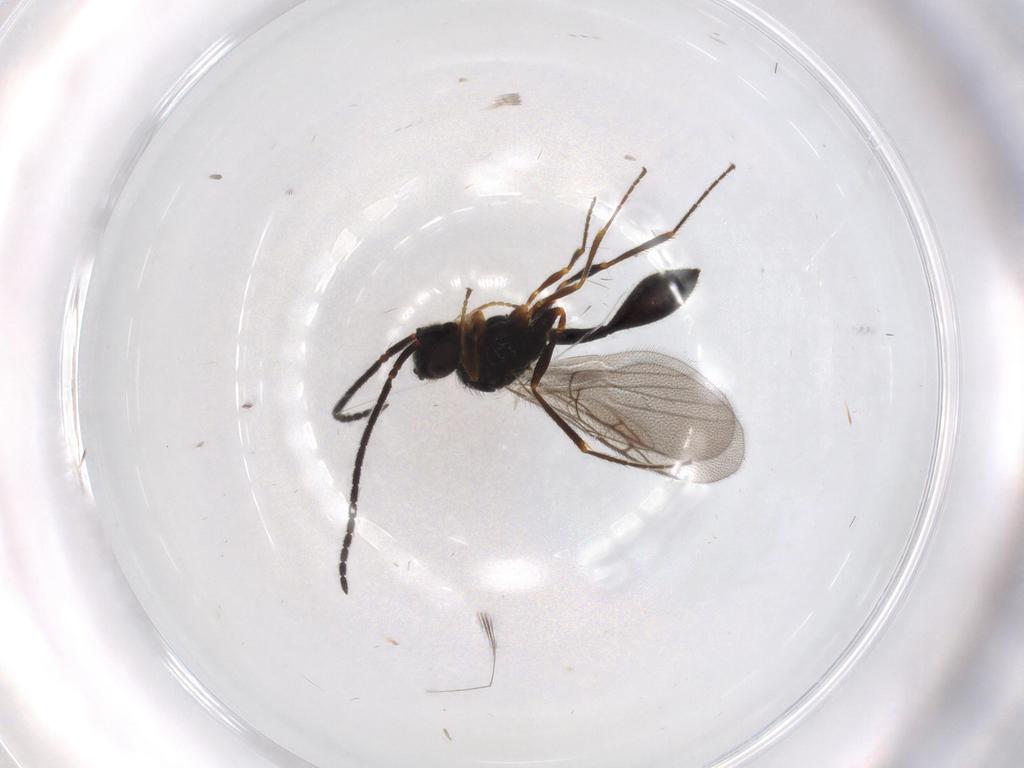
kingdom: Animalia
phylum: Arthropoda
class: Insecta
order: Hymenoptera
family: Diapriidae
